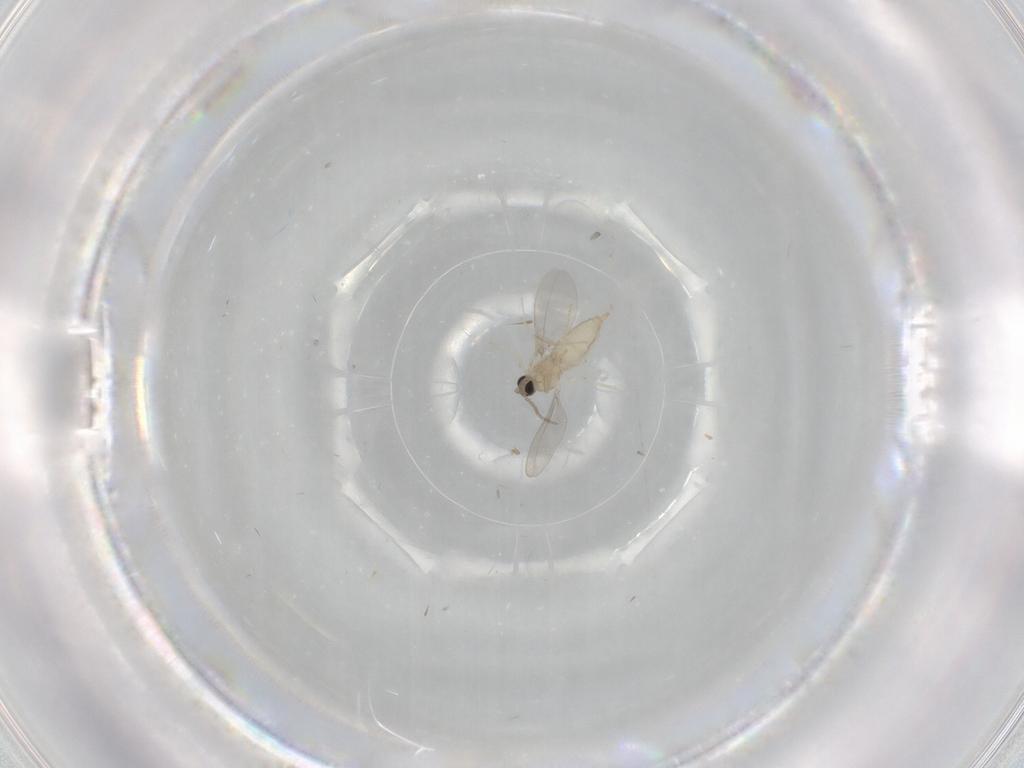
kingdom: Animalia
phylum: Arthropoda
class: Insecta
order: Diptera
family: Cecidomyiidae
